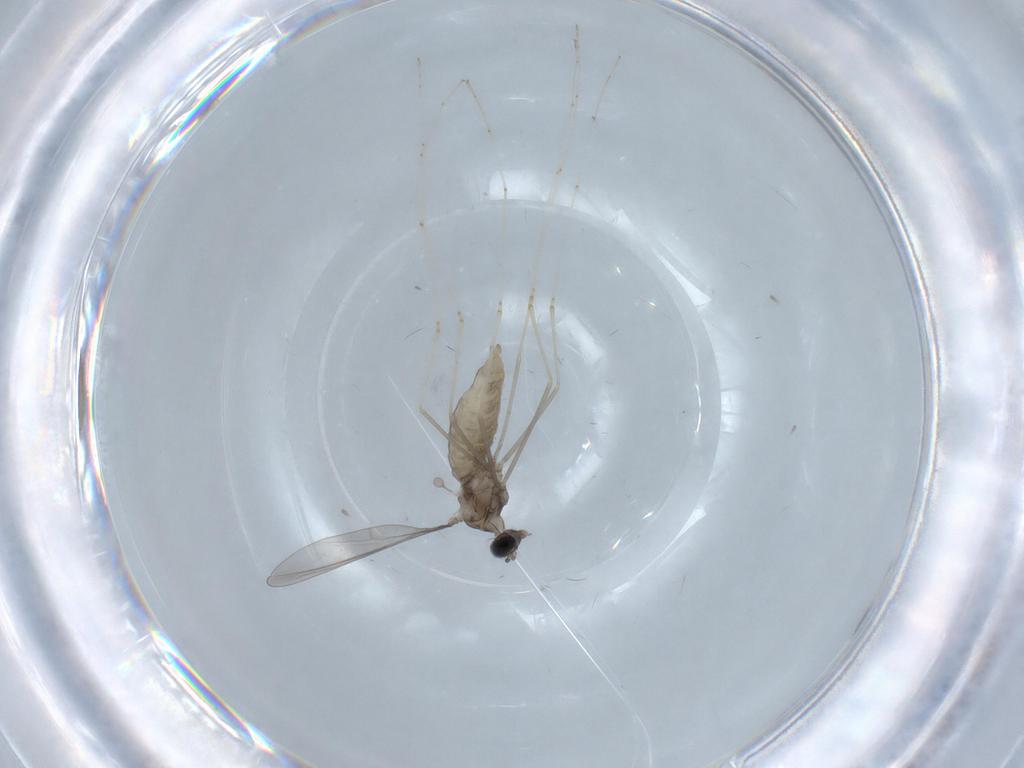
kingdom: Animalia
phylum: Arthropoda
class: Insecta
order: Diptera
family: Cecidomyiidae
